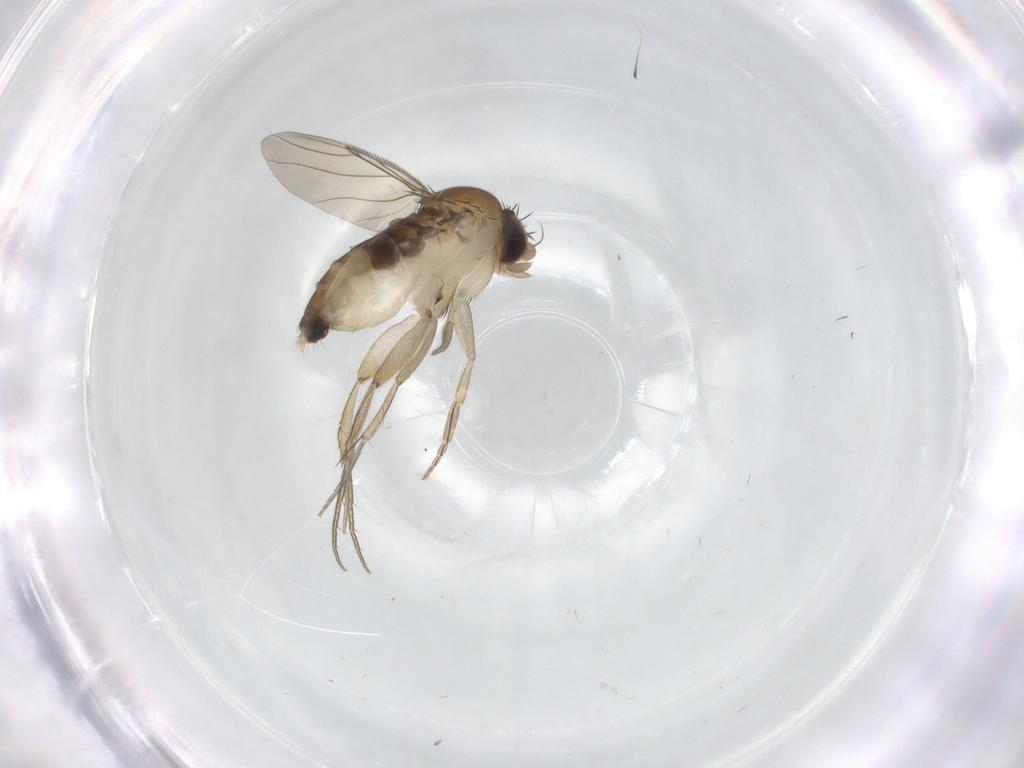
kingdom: Animalia
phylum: Arthropoda
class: Insecta
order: Diptera
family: Phoridae
